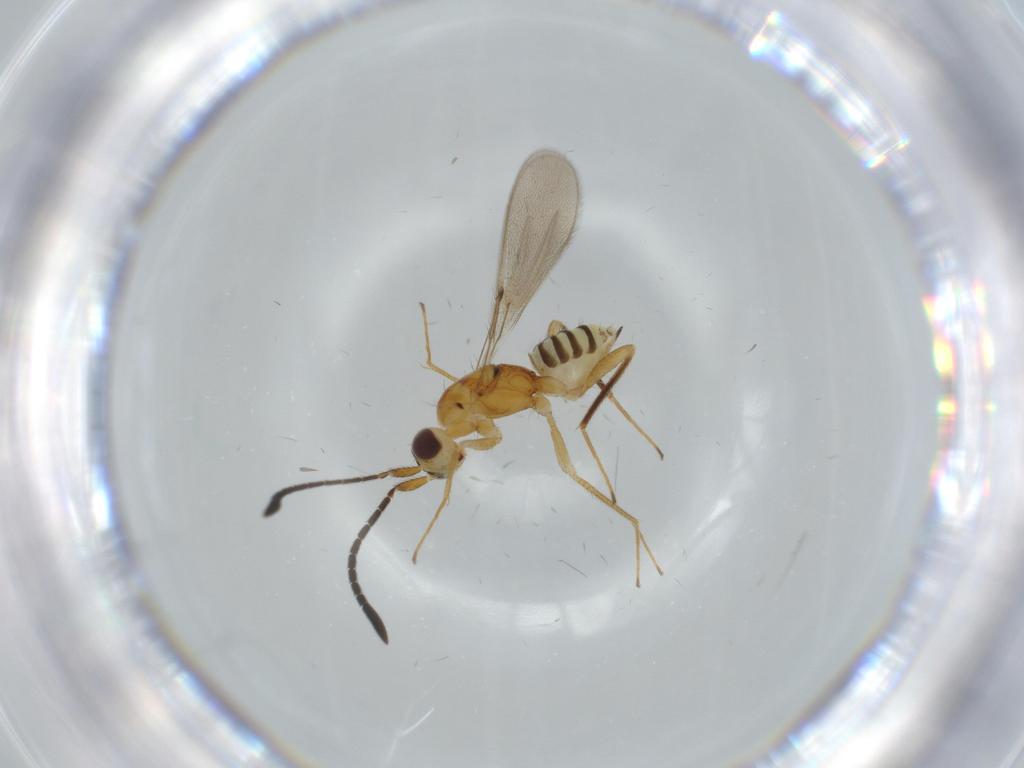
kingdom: Animalia
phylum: Arthropoda
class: Insecta
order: Hymenoptera
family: Mymaridae
